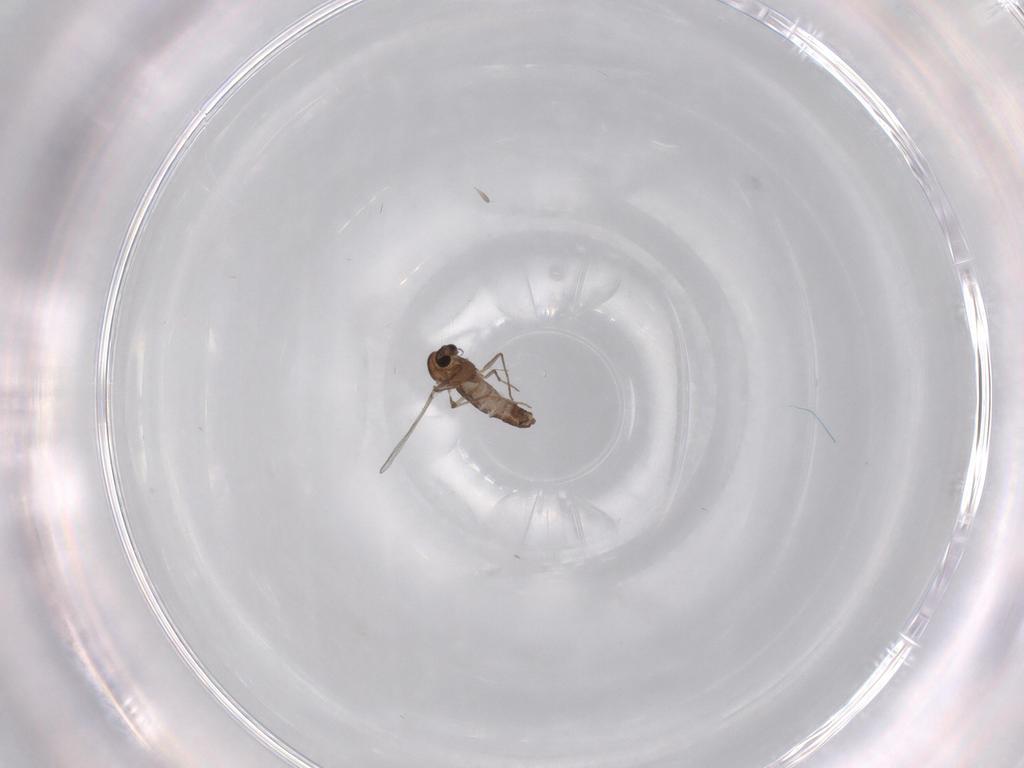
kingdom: Animalia
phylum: Arthropoda
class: Insecta
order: Diptera
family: Chironomidae
